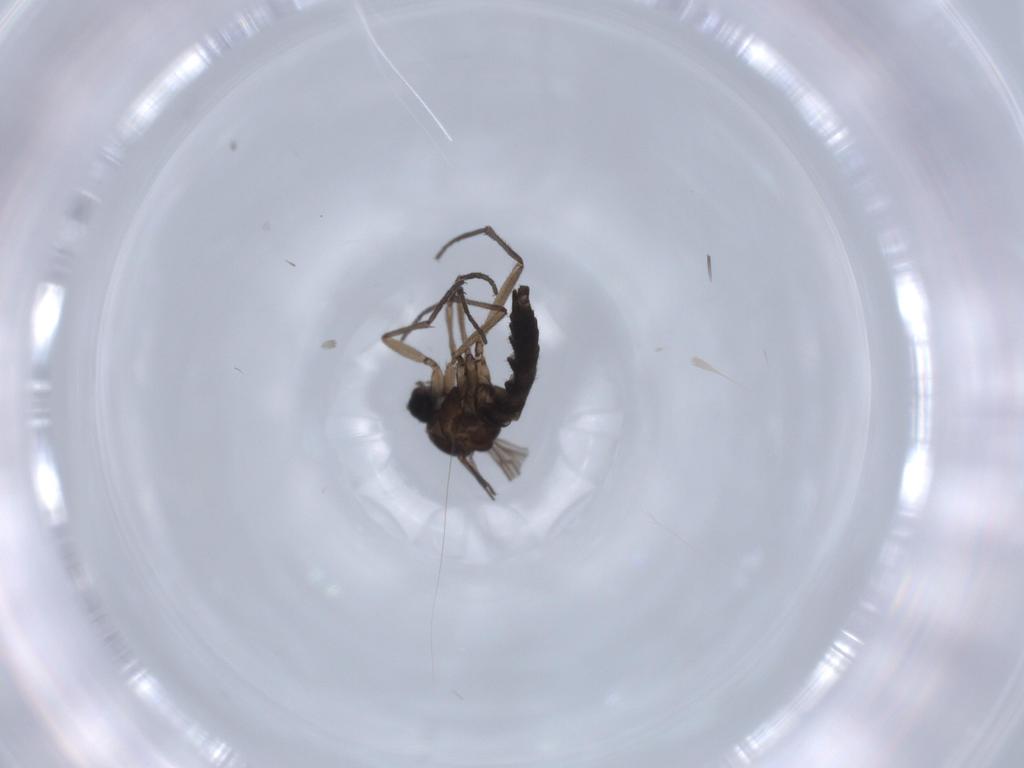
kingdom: Animalia
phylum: Arthropoda
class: Insecta
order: Diptera
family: Sciaridae
